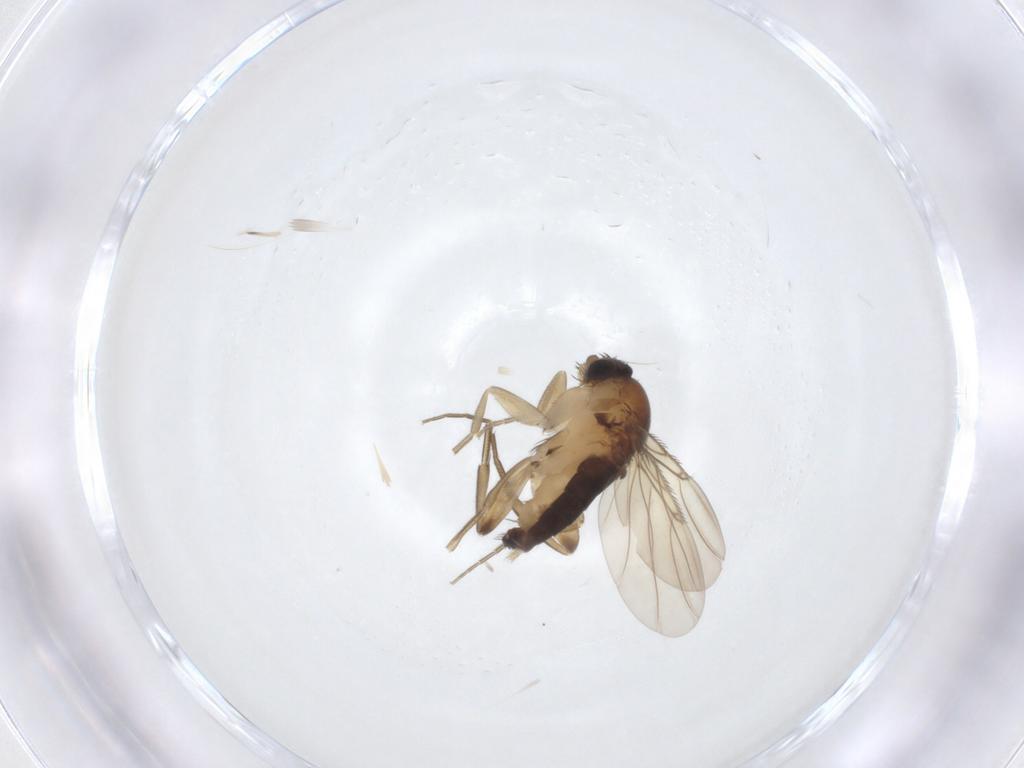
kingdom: Animalia
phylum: Arthropoda
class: Insecta
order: Diptera
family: Phoridae
